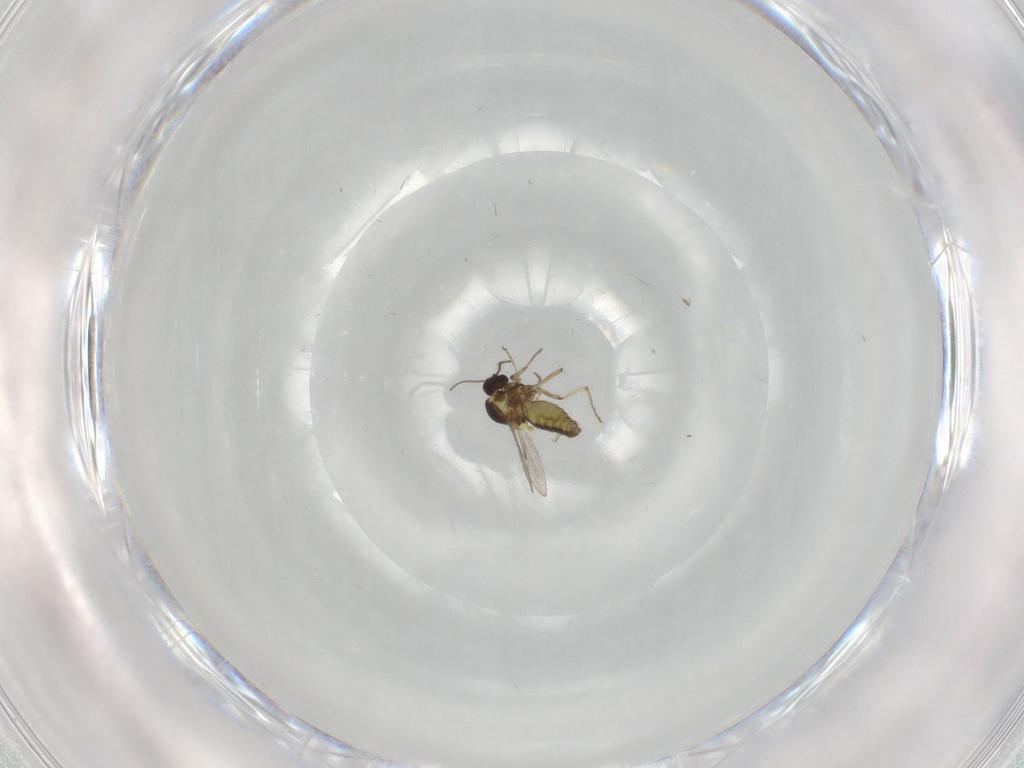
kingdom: Animalia
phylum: Arthropoda
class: Insecta
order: Diptera
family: Ceratopogonidae
